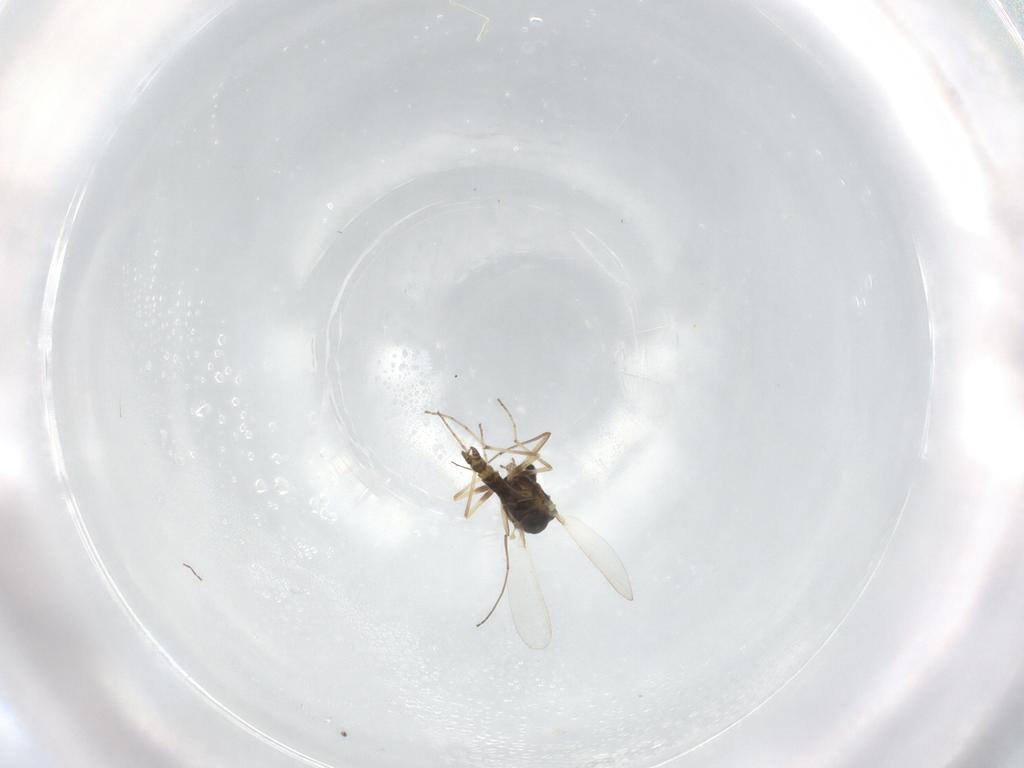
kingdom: Animalia
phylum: Arthropoda
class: Insecta
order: Diptera
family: Chironomidae
